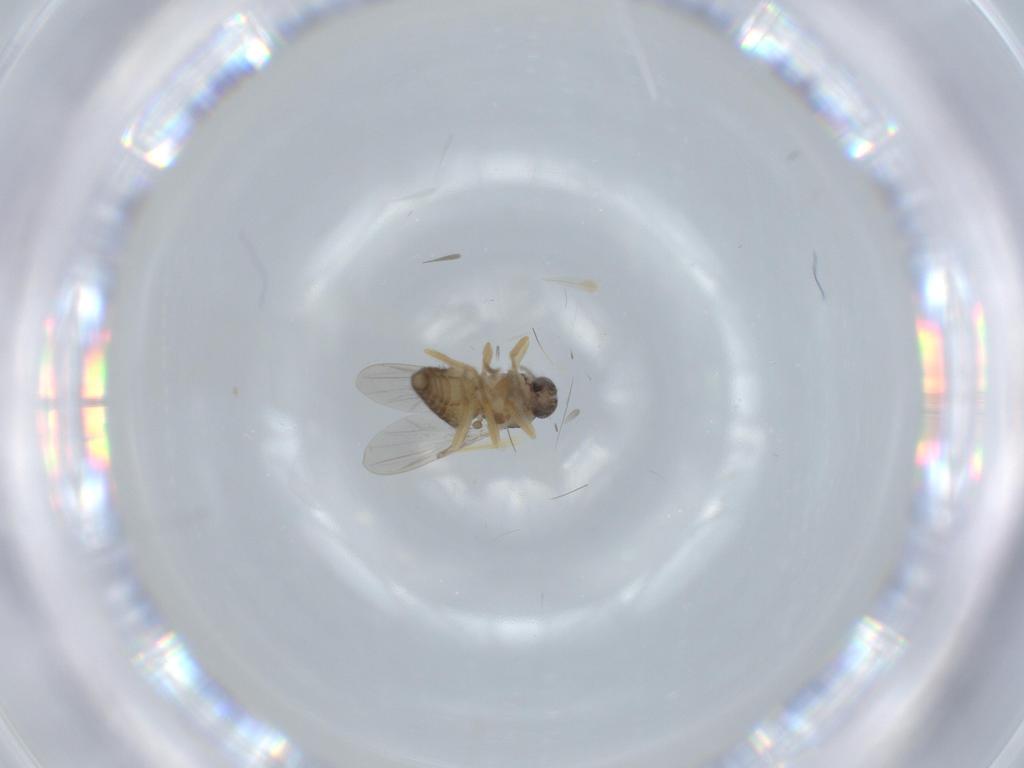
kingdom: Animalia
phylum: Arthropoda
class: Insecta
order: Diptera
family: Ceratopogonidae
